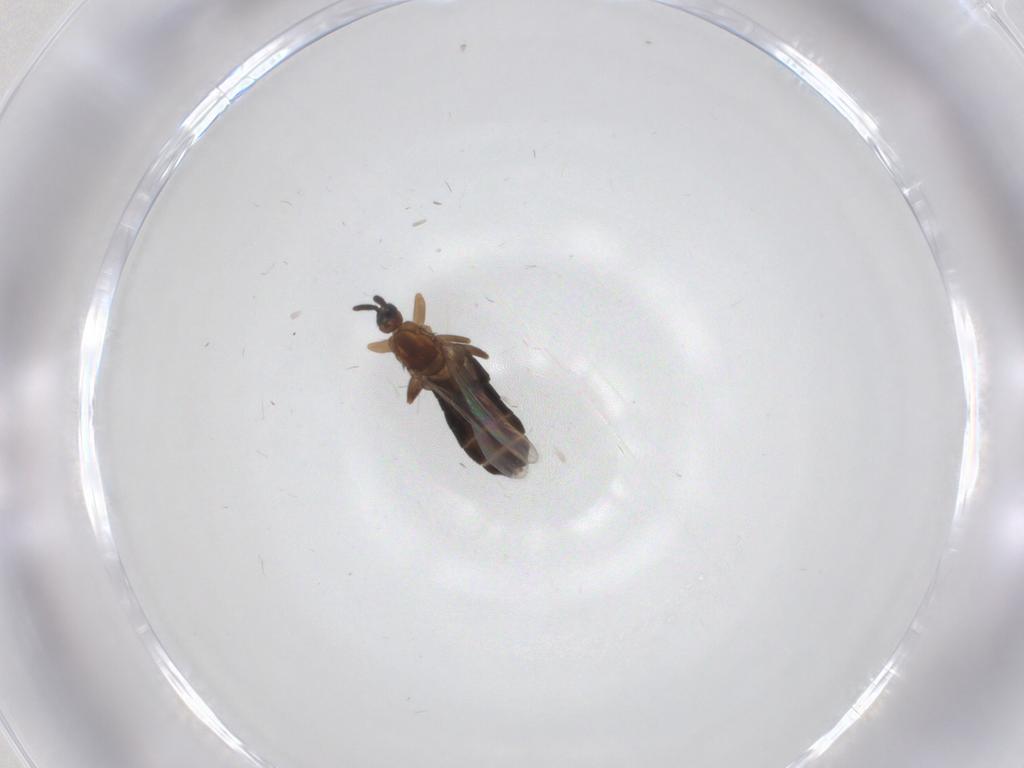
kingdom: Animalia
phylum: Arthropoda
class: Insecta
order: Diptera
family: Scatopsidae
